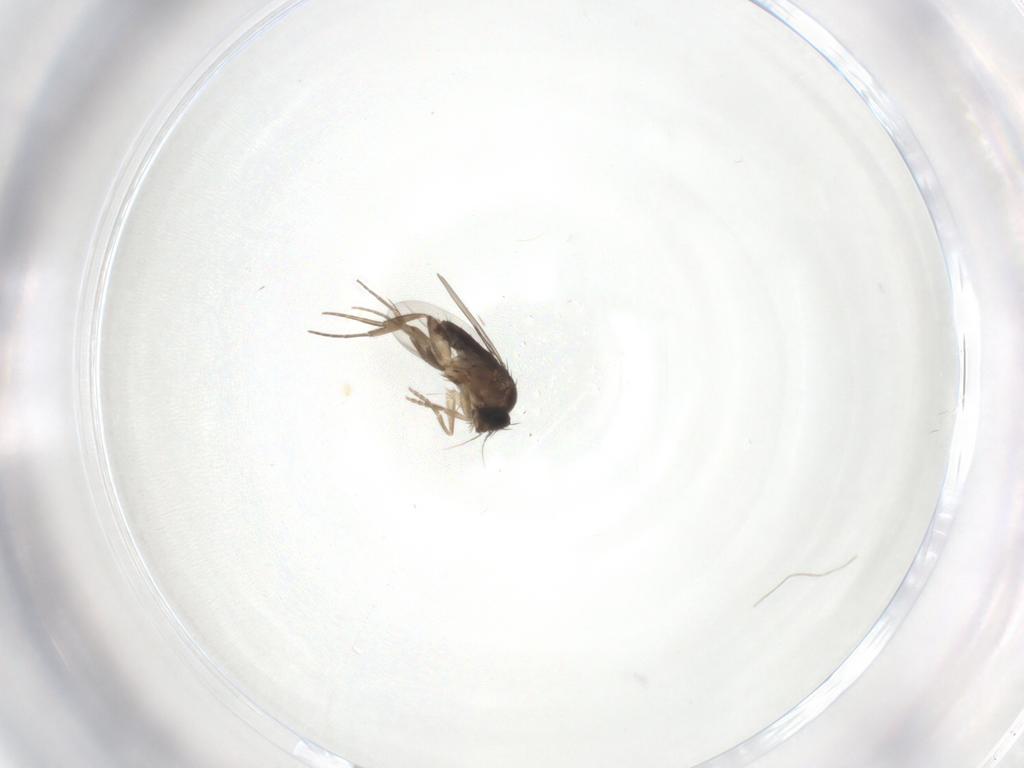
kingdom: Animalia
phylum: Arthropoda
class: Insecta
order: Diptera
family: Phoridae
